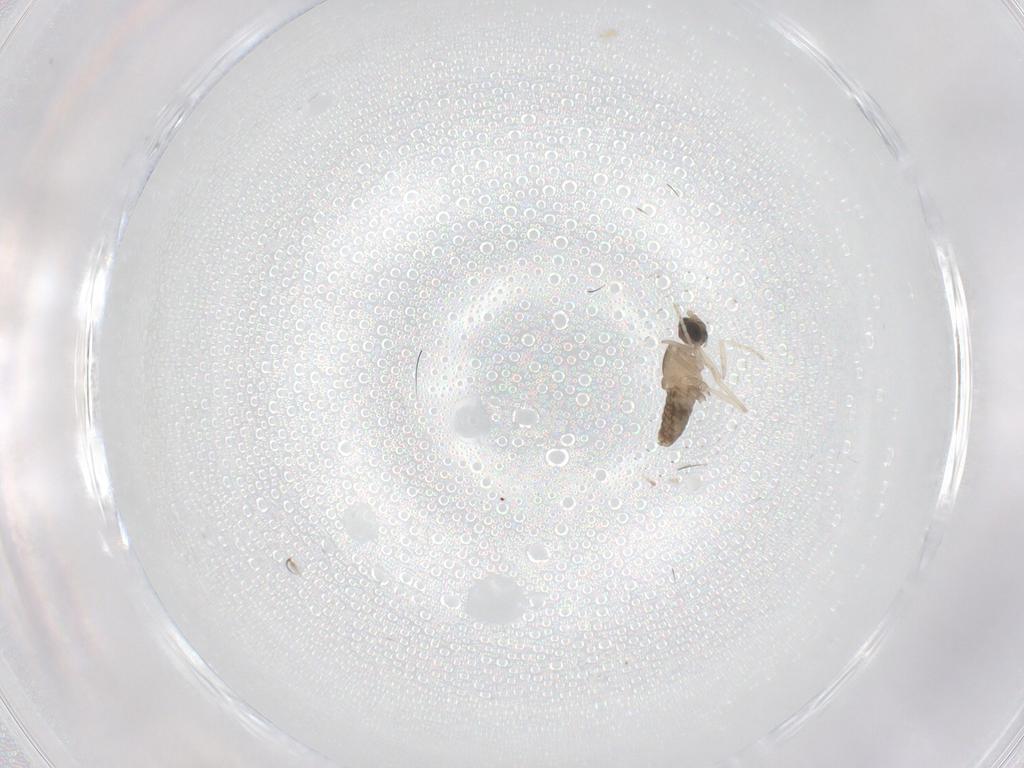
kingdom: Animalia
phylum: Arthropoda
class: Insecta
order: Diptera
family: Cecidomyiidae
